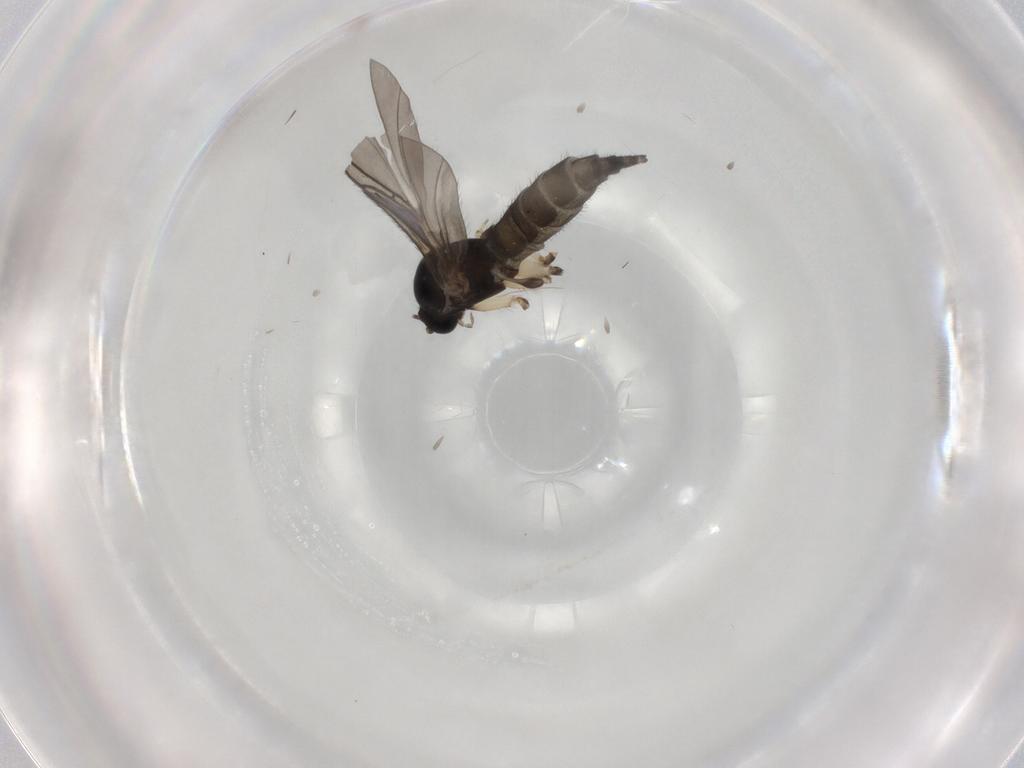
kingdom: Animalia
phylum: Arthropoda
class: Insecta
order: Diptera
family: Sciaridae
